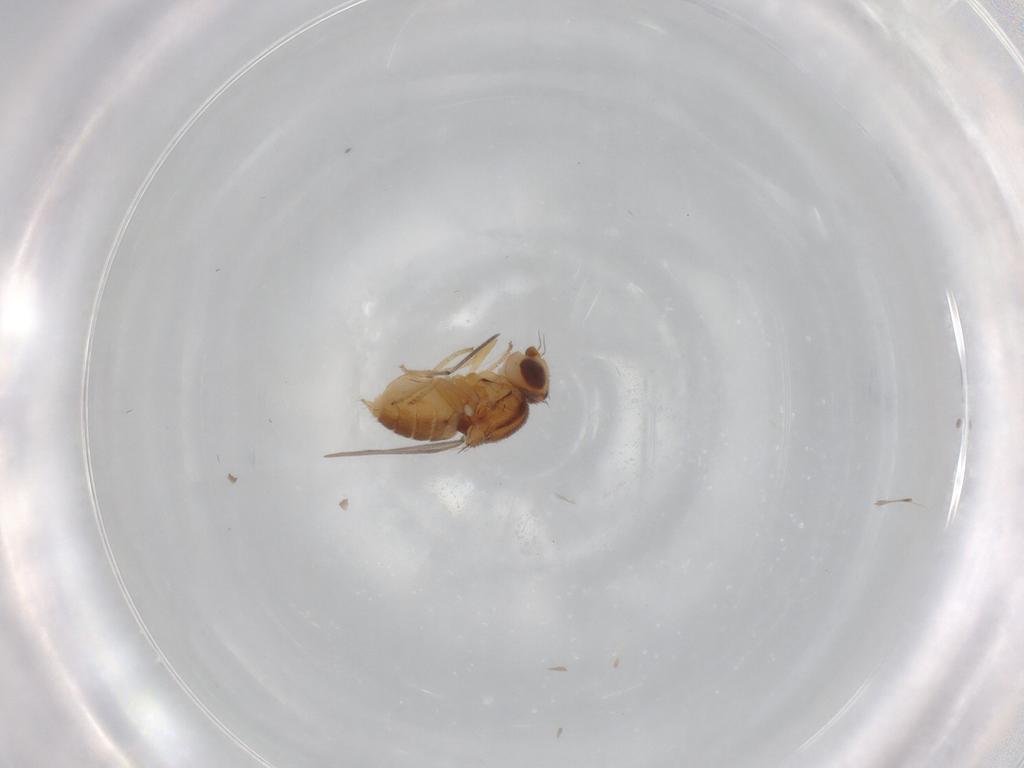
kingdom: Animalia
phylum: Arthropoda
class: Insecta
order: Diptera
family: Chloropidae
